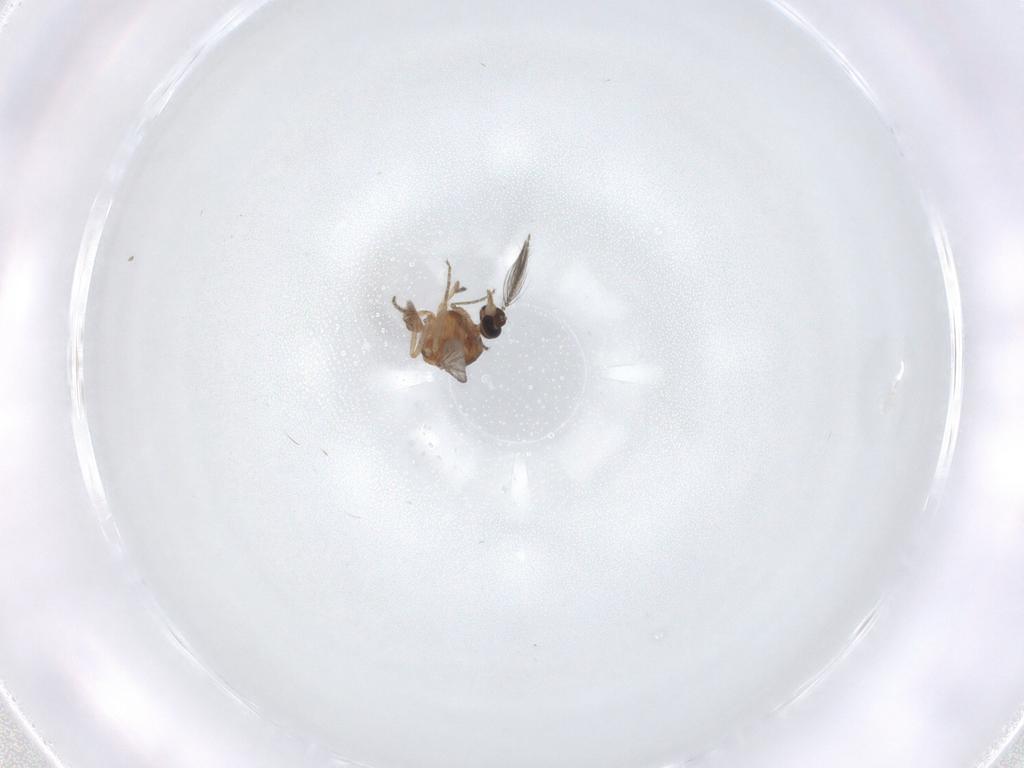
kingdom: Animalia
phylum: Arthropoda
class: Insecta
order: Diptera
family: Ceratopogonidae
